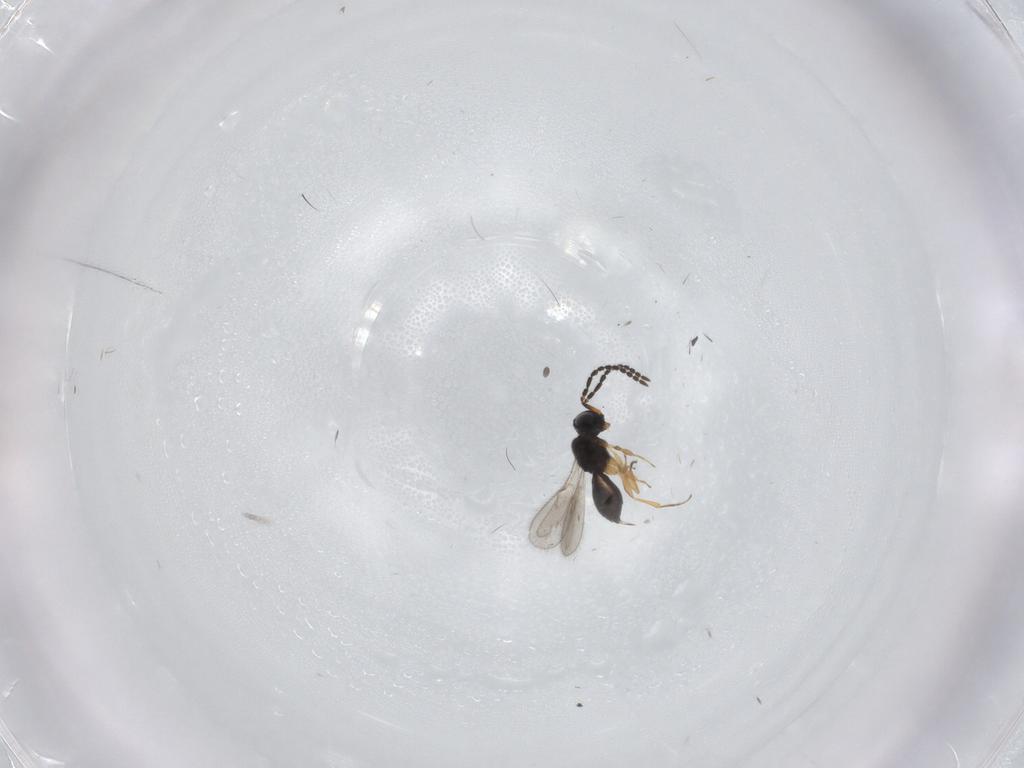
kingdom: Animalia
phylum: Arthropoda
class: Insecta
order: Hymenoptera
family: Scelionidae
